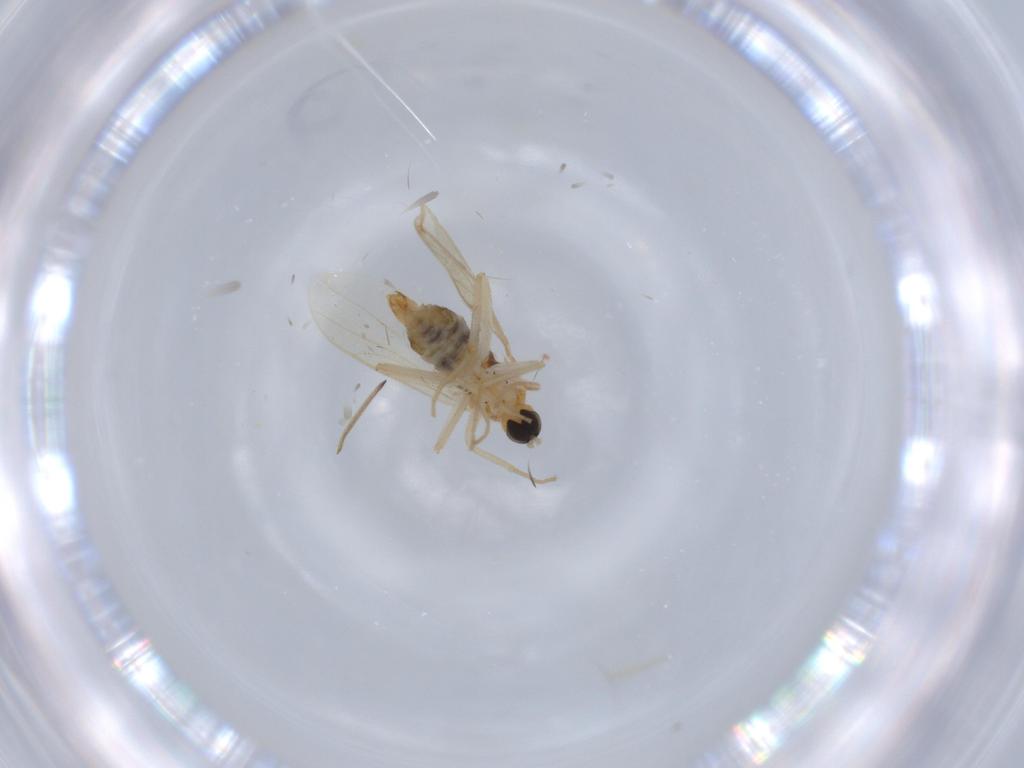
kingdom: Animalia
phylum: Arthropoda
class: Insecta
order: Diptera
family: Hybotidae
